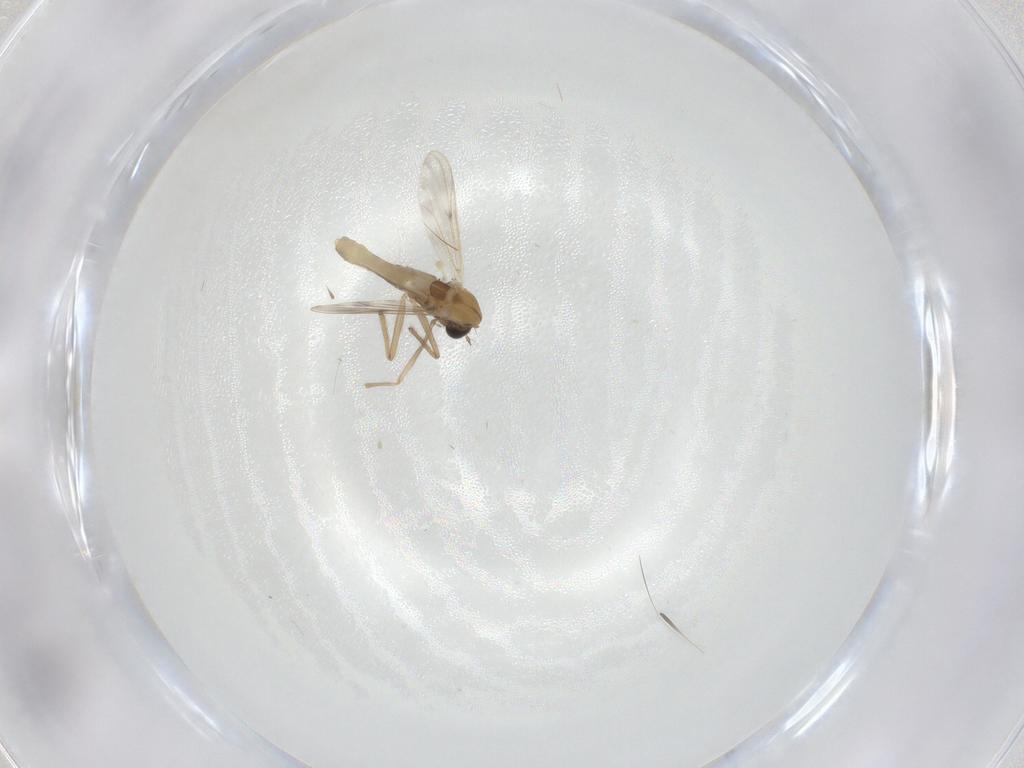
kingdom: Animalia
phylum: Arthropoda
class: Insecta
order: Diptera
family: Chironomidae
